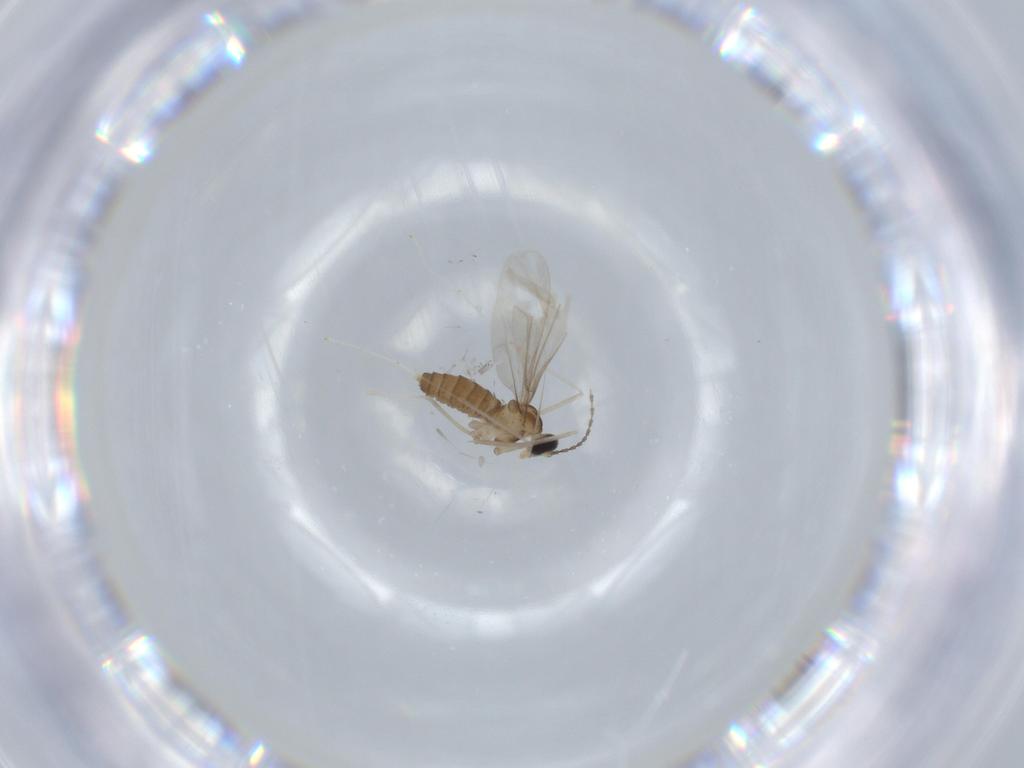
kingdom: Animalia
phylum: Arthropoda
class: Insecta
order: Diptera
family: Cecidomyiidae
